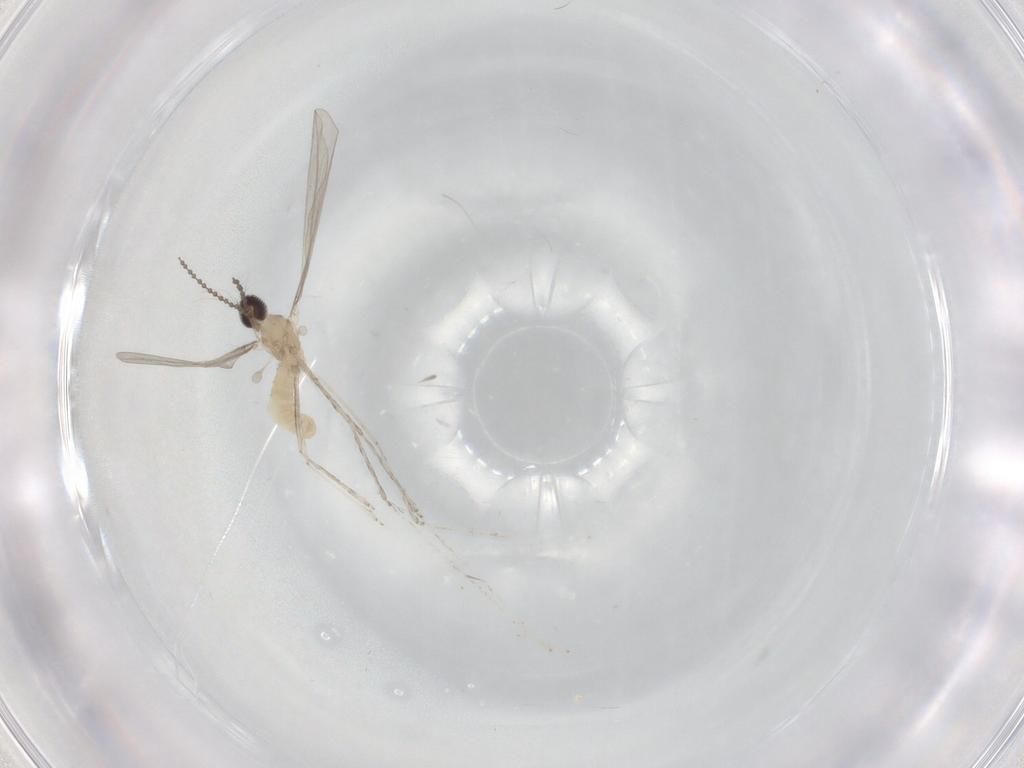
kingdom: Animalia
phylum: Arthropoda
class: Insecta
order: Diptera
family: Cecidomyiidae
